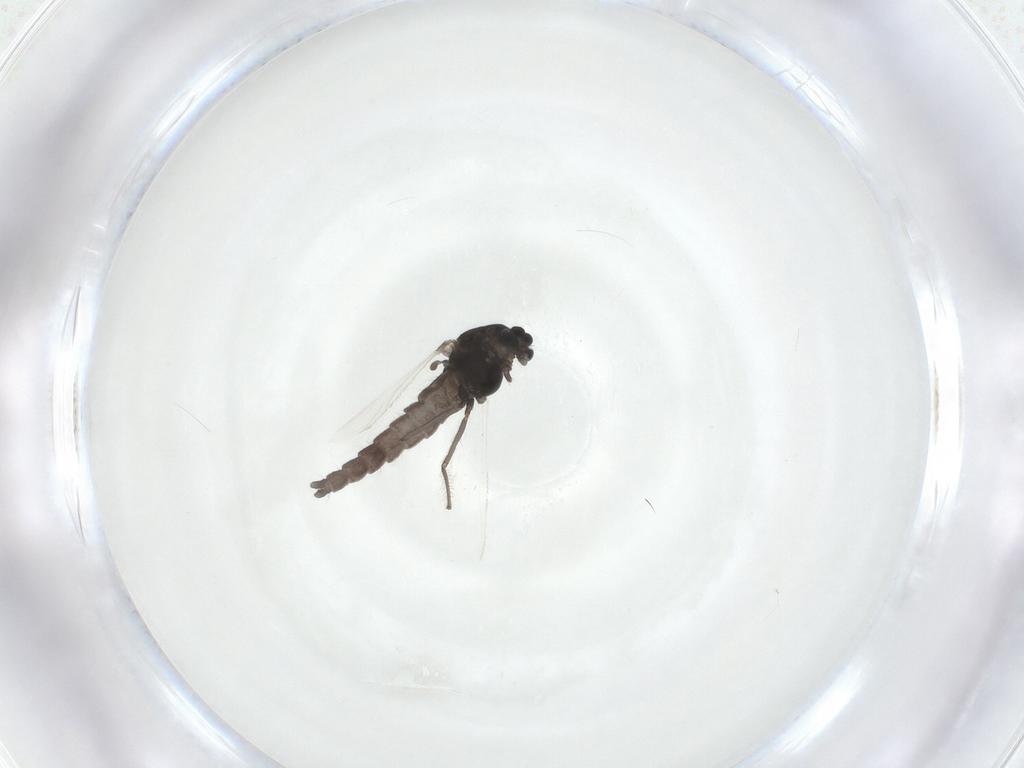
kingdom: Animalia
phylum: Arthropoda
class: Insecta
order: Diptera
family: Chironomidae
